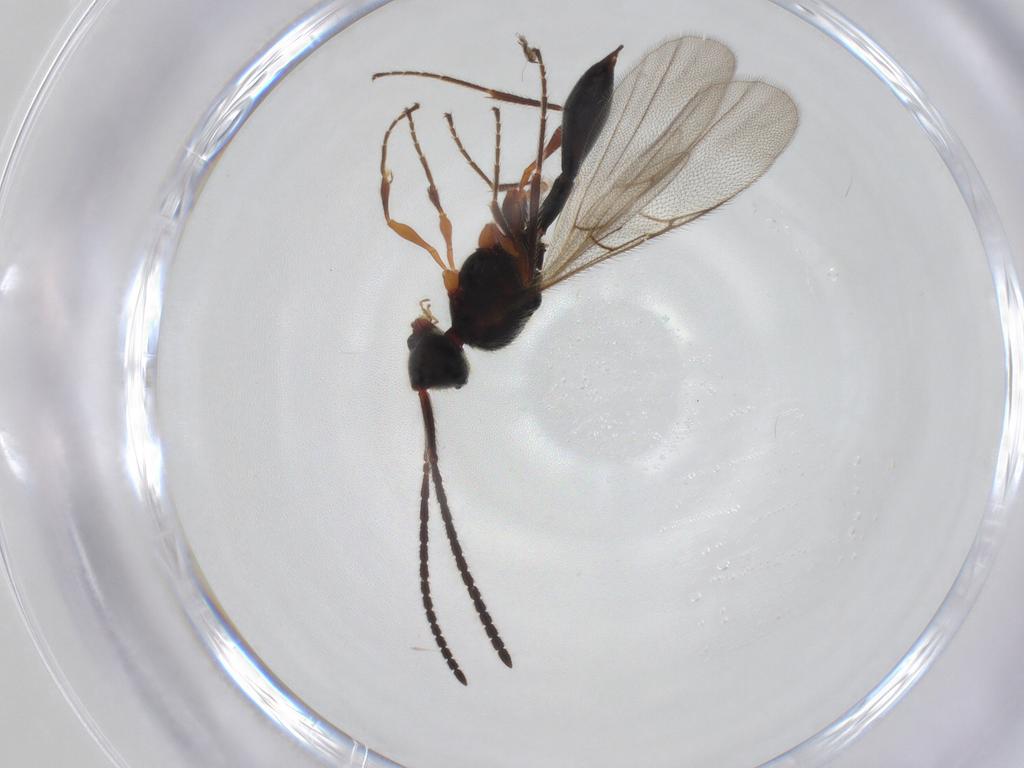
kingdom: Animalia
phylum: Arthropoda
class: Insecta
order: Hymenoptera
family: Diapriidae
